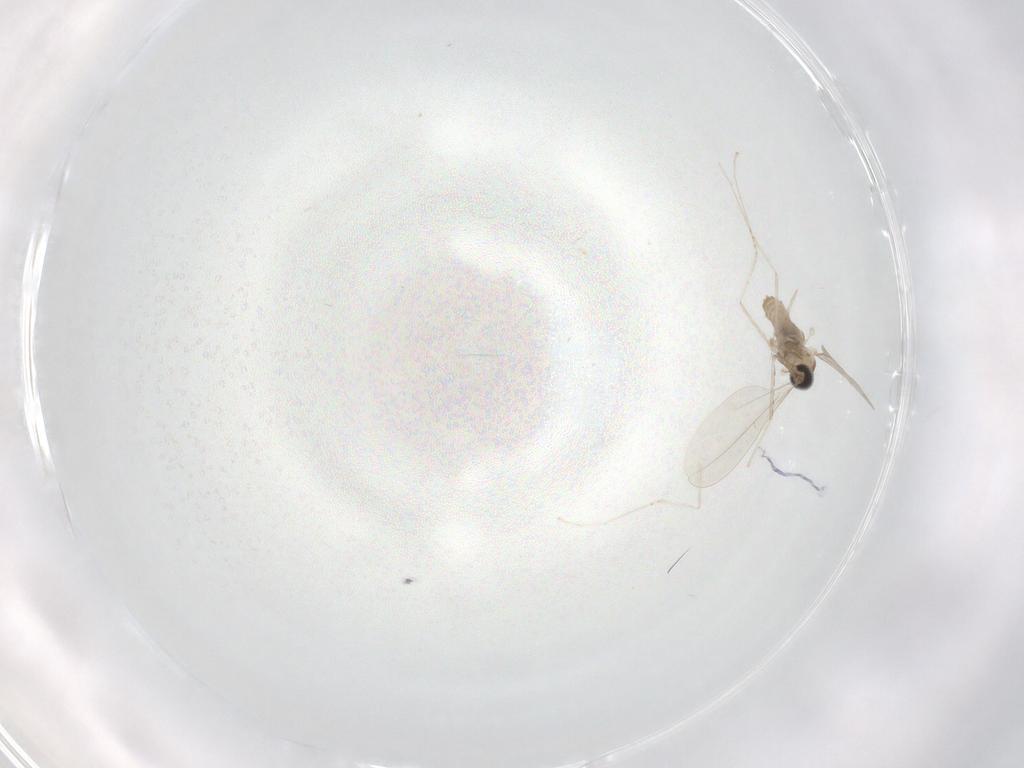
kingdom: Animalia
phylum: Arthropoda
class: Insecta
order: Diptera
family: Cecidomyiidae
